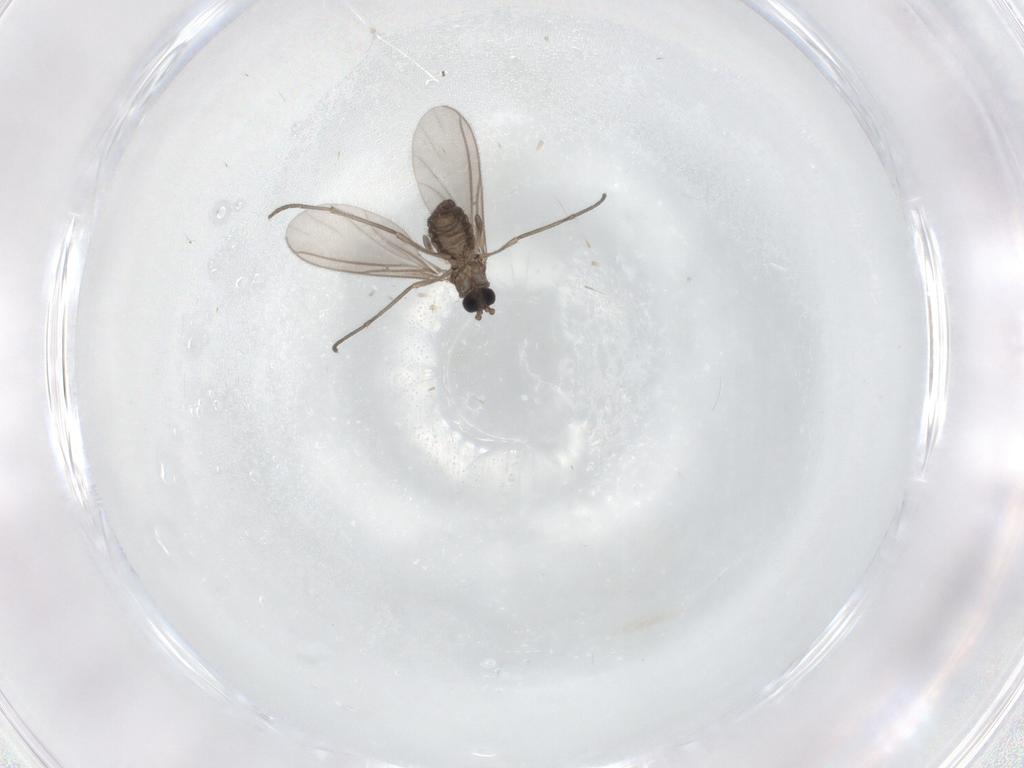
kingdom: Animalia
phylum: Arthropoda
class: Insecta
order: Diptera
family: Sciaridae
